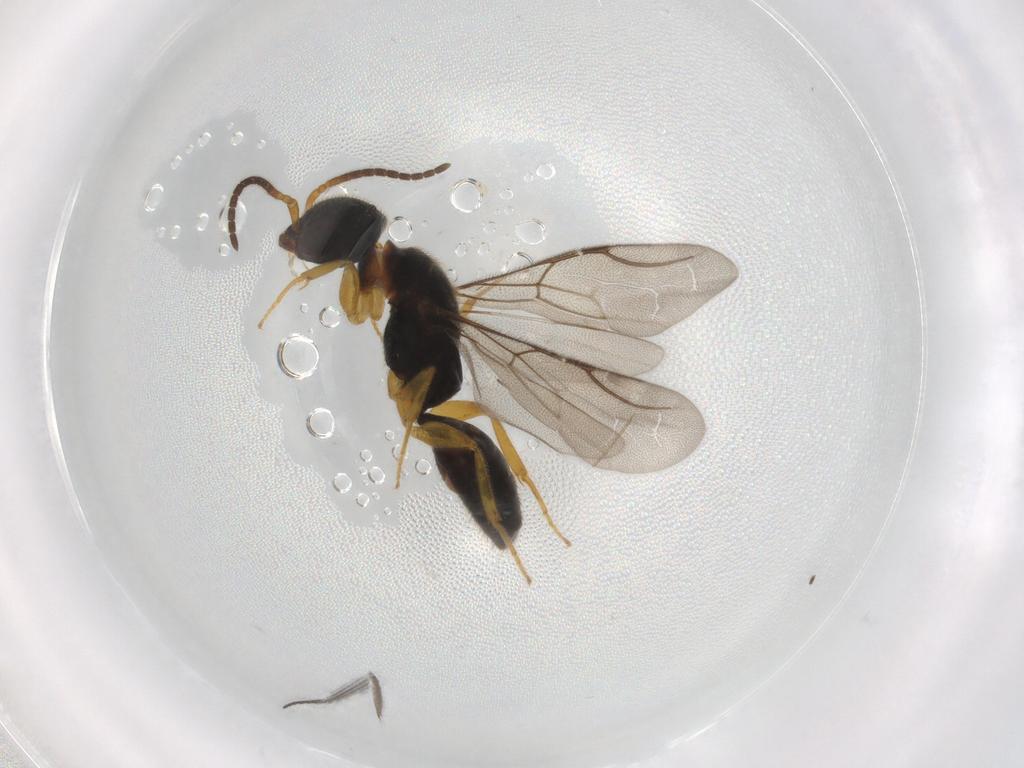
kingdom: Animalia
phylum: Arthropoda
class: Insecta
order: Hymenoptera
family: Bethylidae
